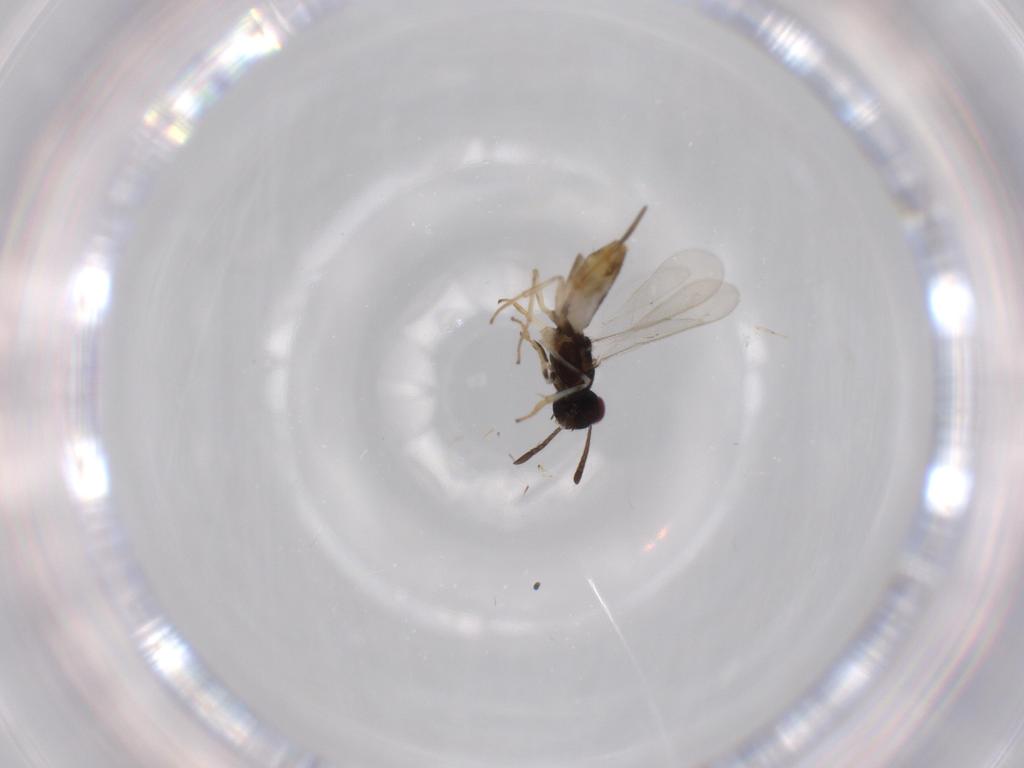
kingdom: Animalia
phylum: Arthropoda
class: Insecta
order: Hymenoptera
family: Eupelmidae
